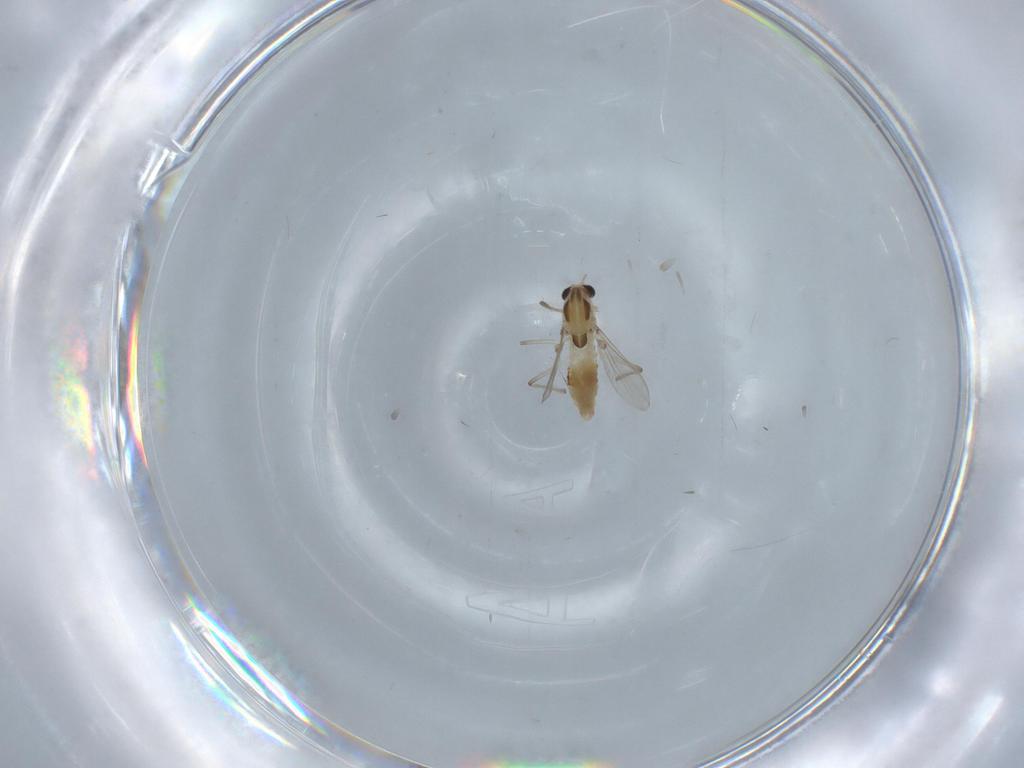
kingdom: Animalia
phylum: Arthropoda
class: Insecta
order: Diptera
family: Chironomidae
